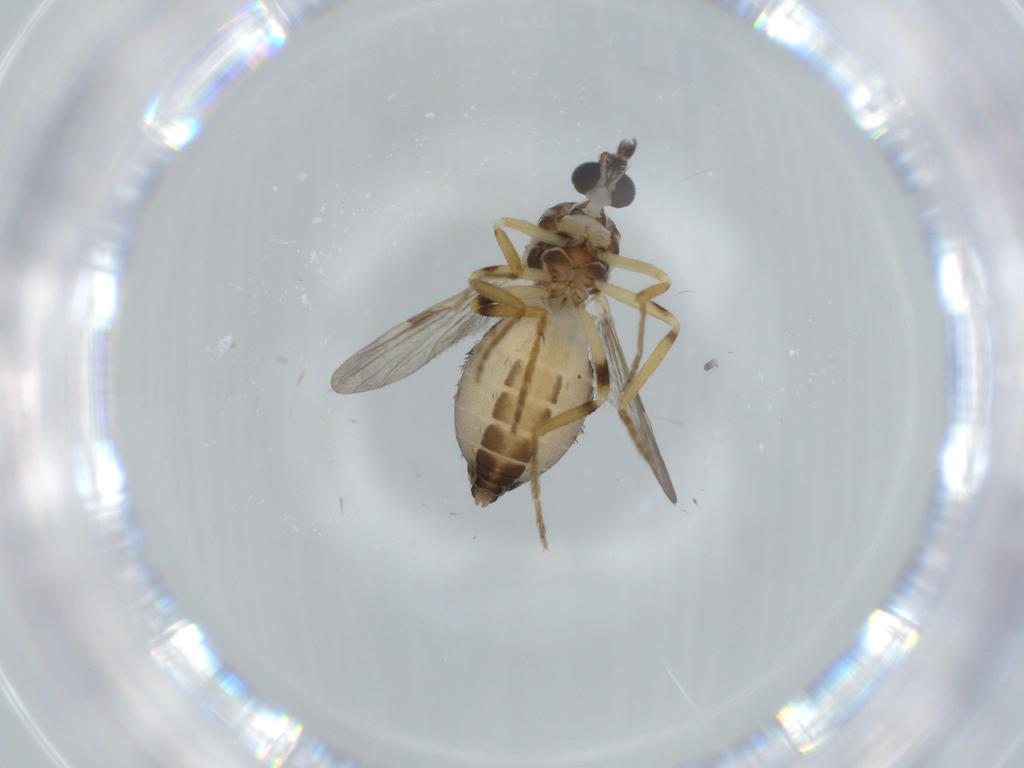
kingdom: Animalia
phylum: Arthropoda
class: Insecta
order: Diptera
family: Ceratopogonidae
